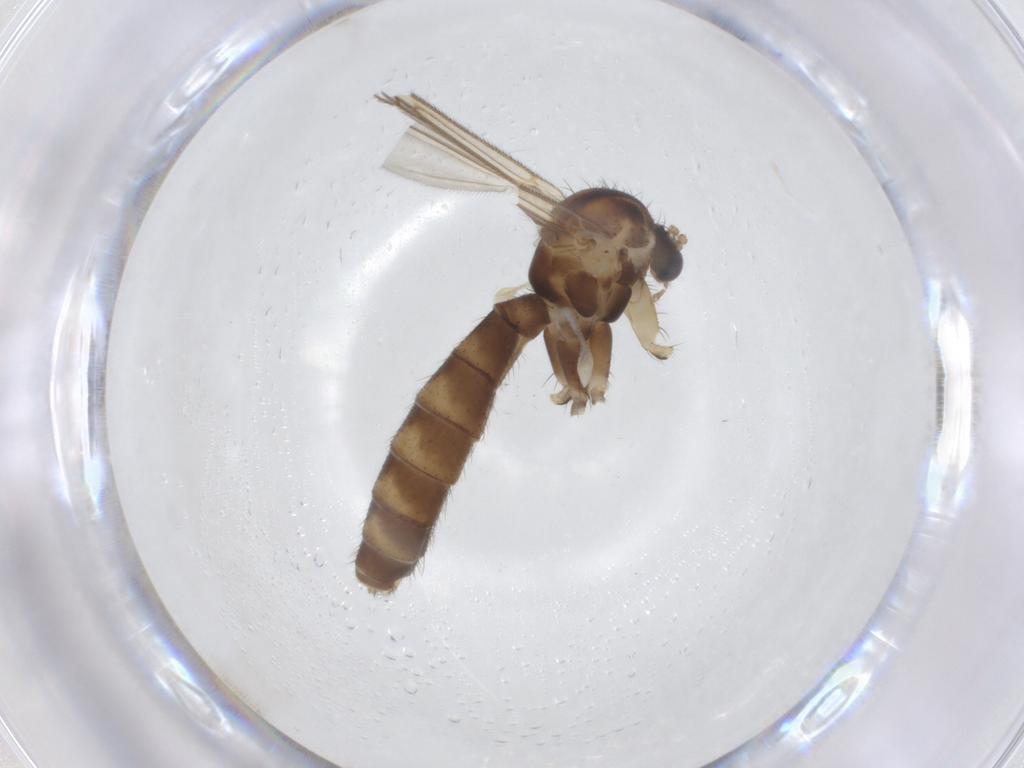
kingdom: Animalia
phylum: Arthropoda
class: Insecta
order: Diptera
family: Mycetophilidae
